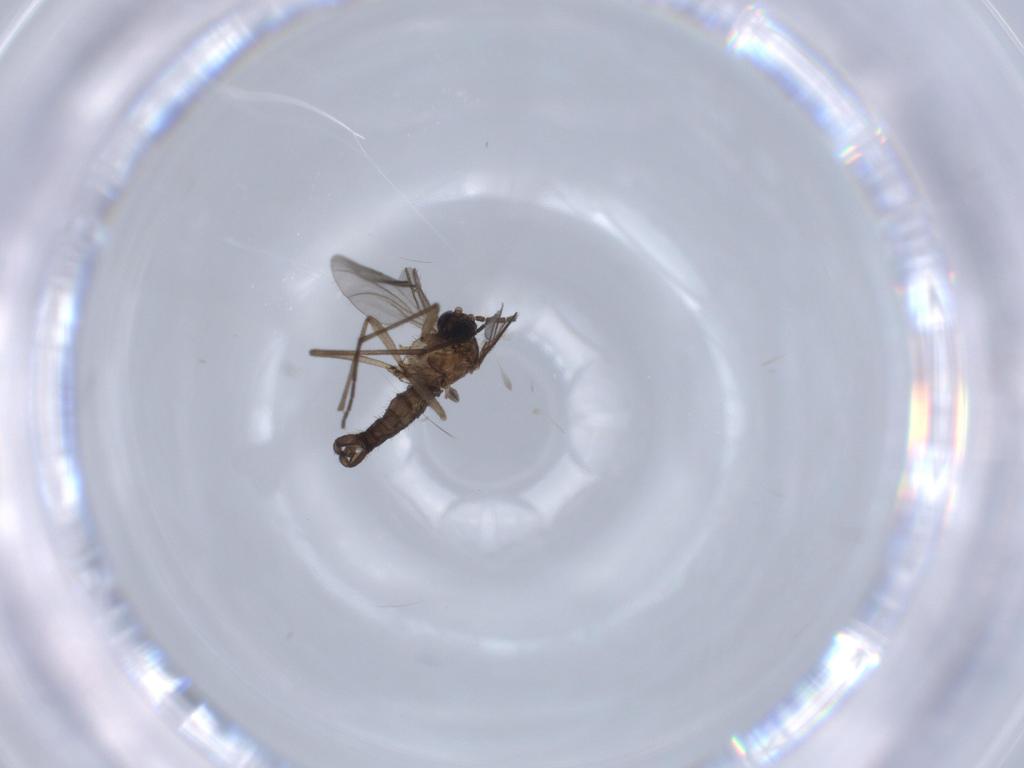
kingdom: Animalia
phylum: Arthropoda
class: Insecta
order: Diptera
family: Sciaridae
